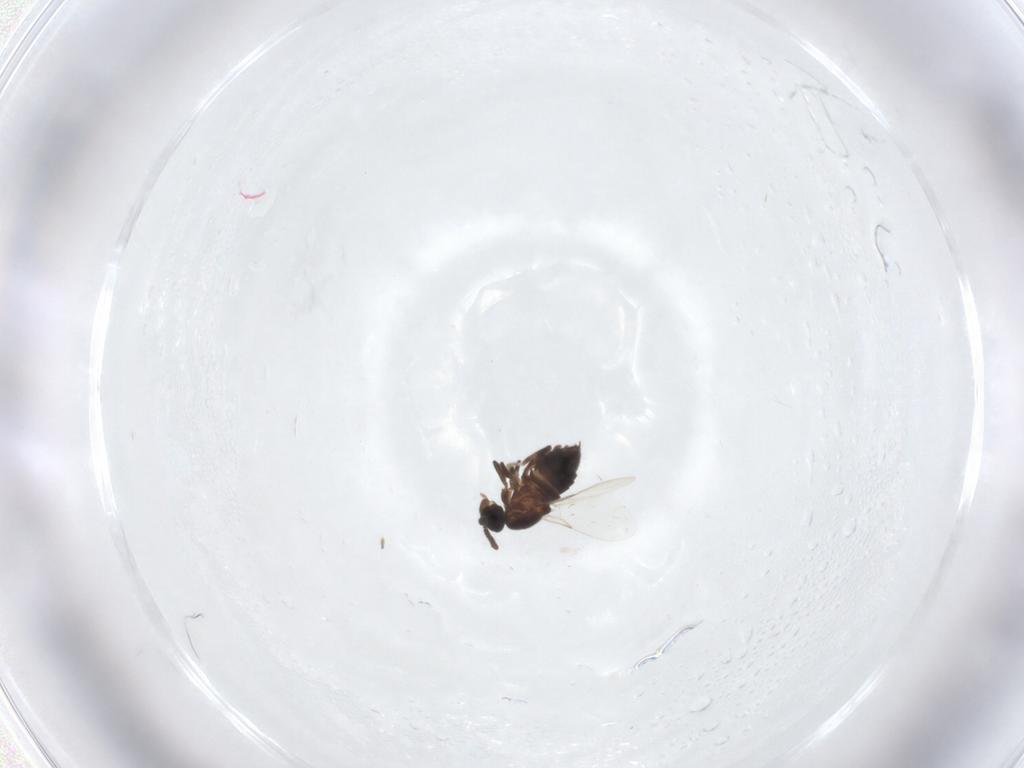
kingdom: Animalia
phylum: Arthropoda
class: Insecta
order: Diptera
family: Scatopsidae
